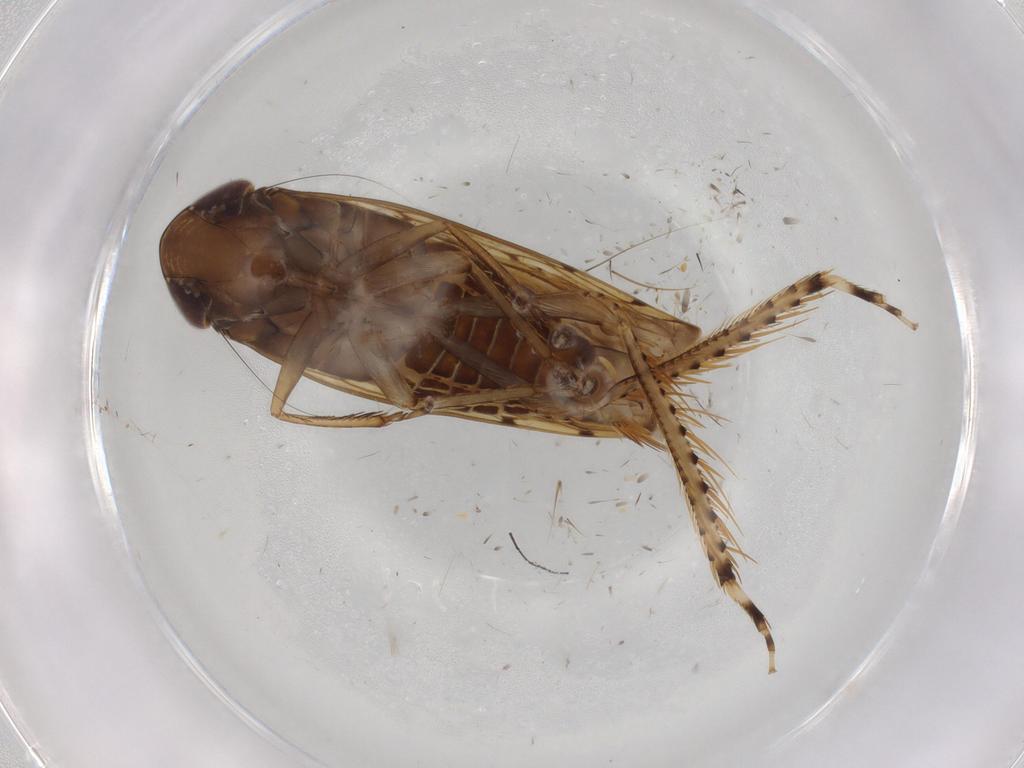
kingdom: Animalia
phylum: Arthropoda
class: Insecta
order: Hemiptera
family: Cicadellidae
